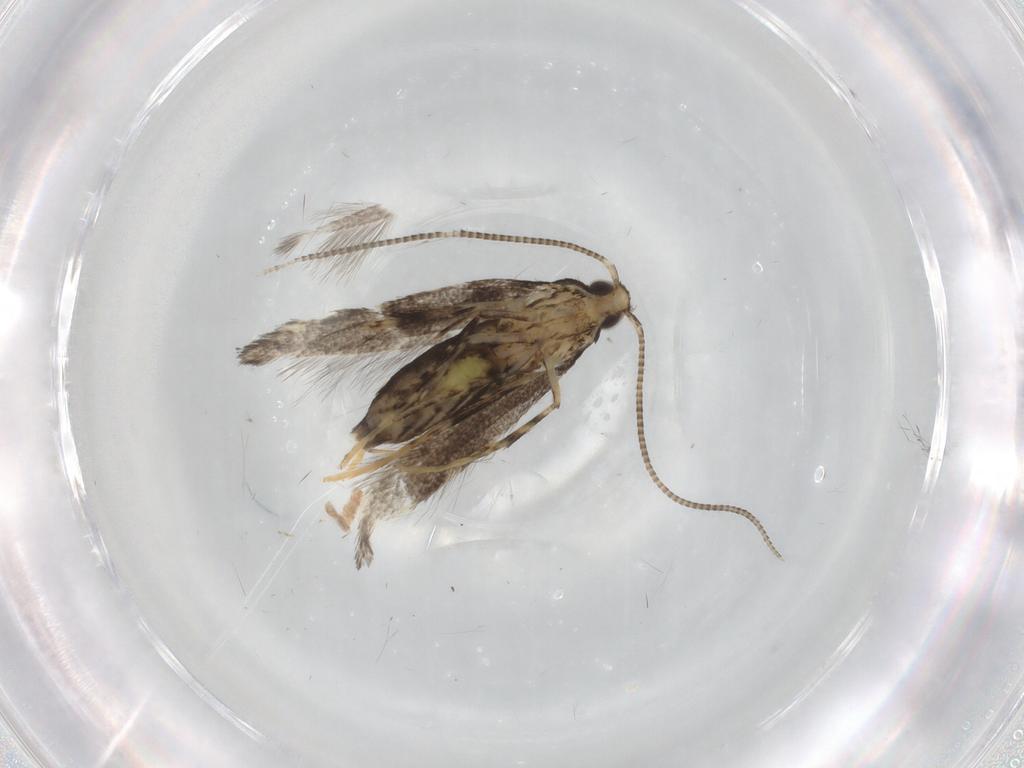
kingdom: Animalia
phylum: Arthropoda
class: Insecta
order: Lepidoptera
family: Gracillariidae
